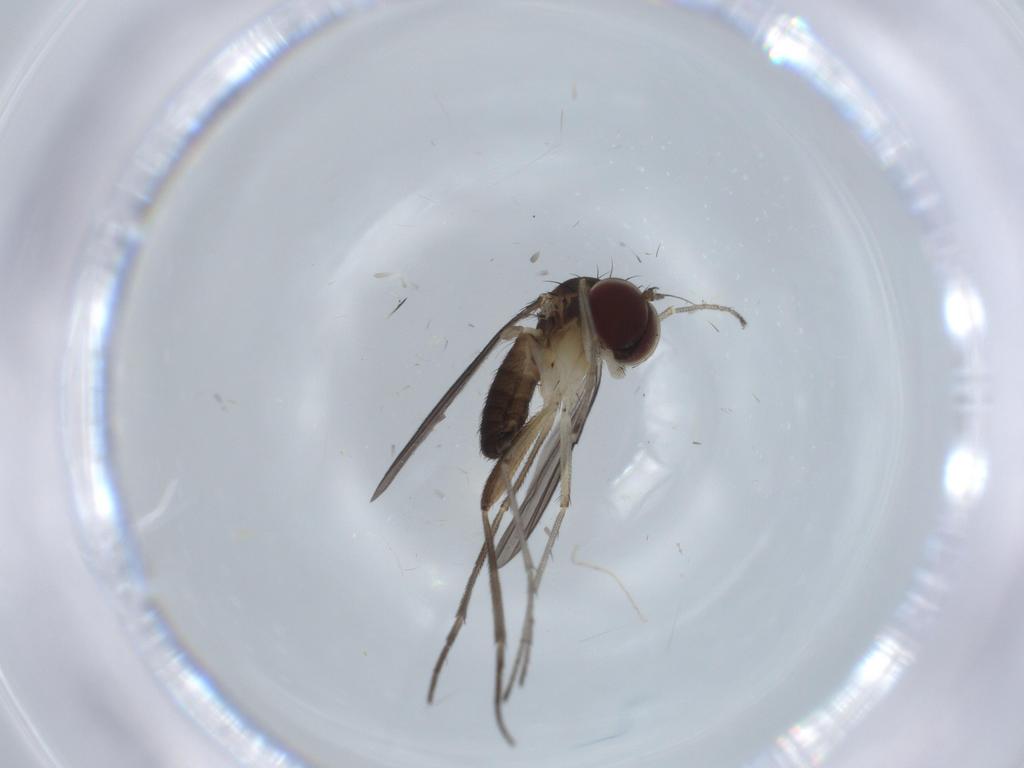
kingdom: Animalia
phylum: Arthropoda
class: Insecta
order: Diptera
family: Dolichopodidae
